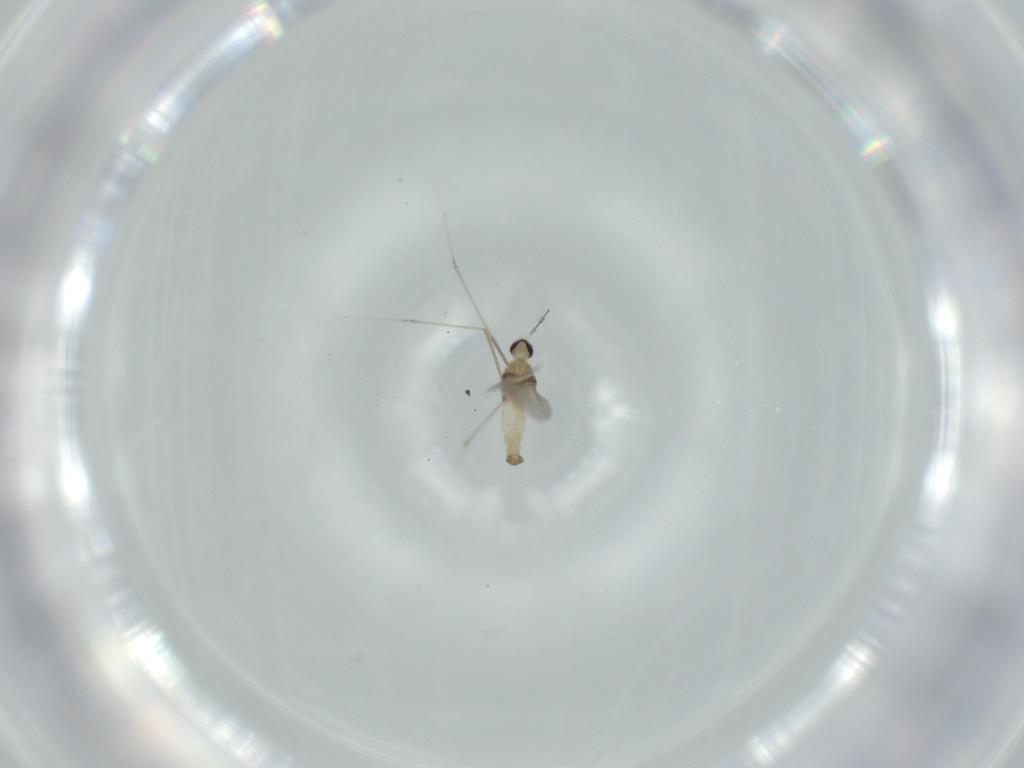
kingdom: Animalia
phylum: Arthropoda
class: Insecta
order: Diptera
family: Cecidomyiidae
